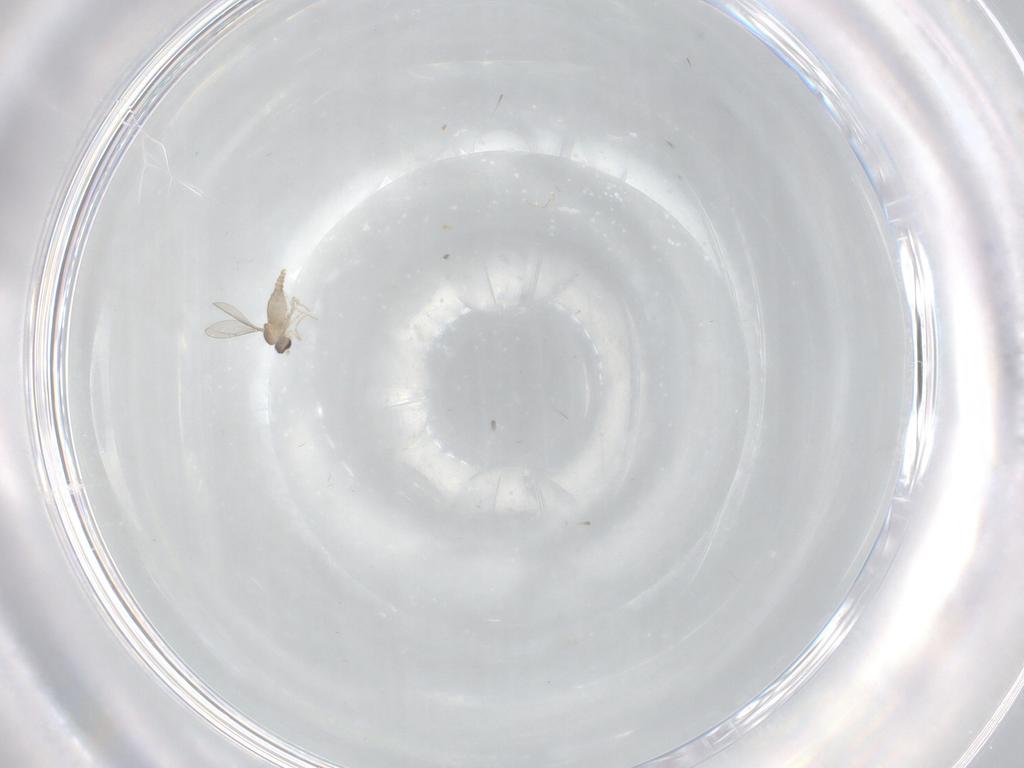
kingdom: Animalia
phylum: Arthropoda
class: Insecta
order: Diptera
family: Cecidomyiidae
